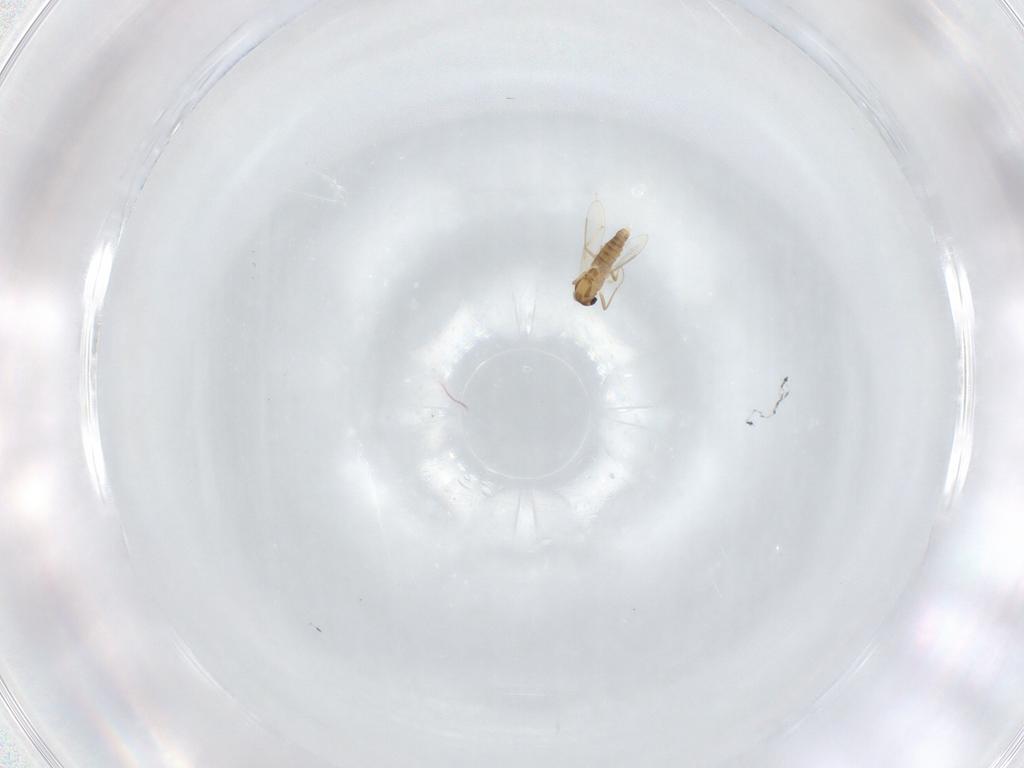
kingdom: Animalia
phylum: Arthropoda
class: Insecta
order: Diptera
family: Chironomidae
